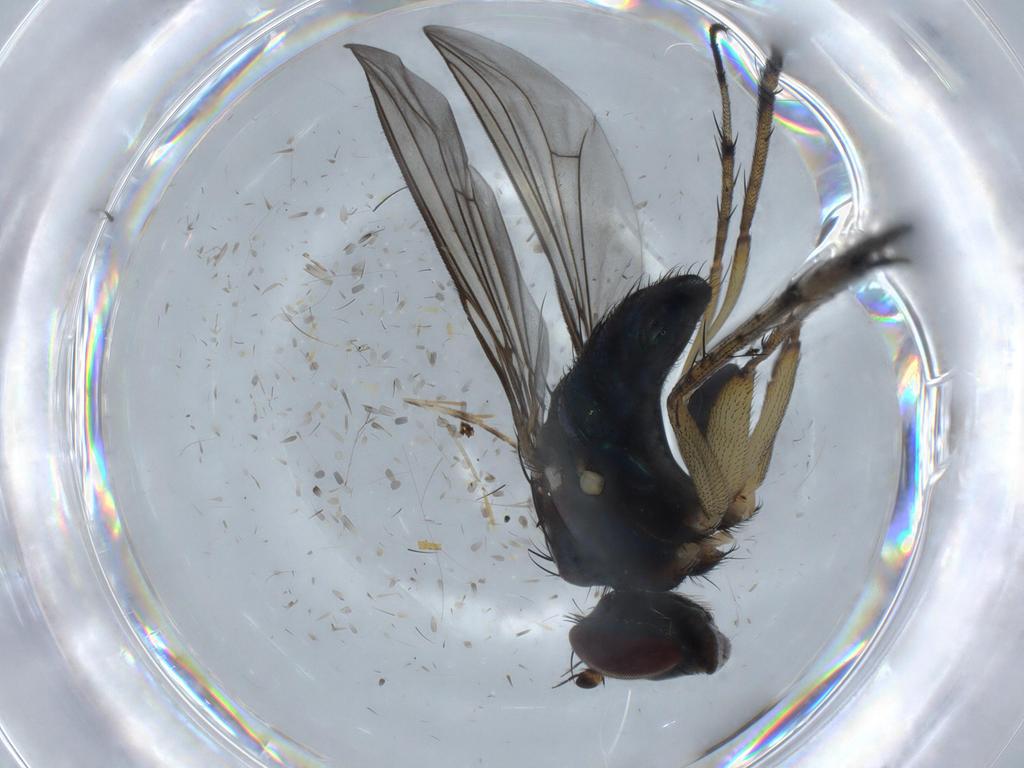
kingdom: Animalia
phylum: Arthropoda
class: Insecta
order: Diptera
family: Dolichopodidae
